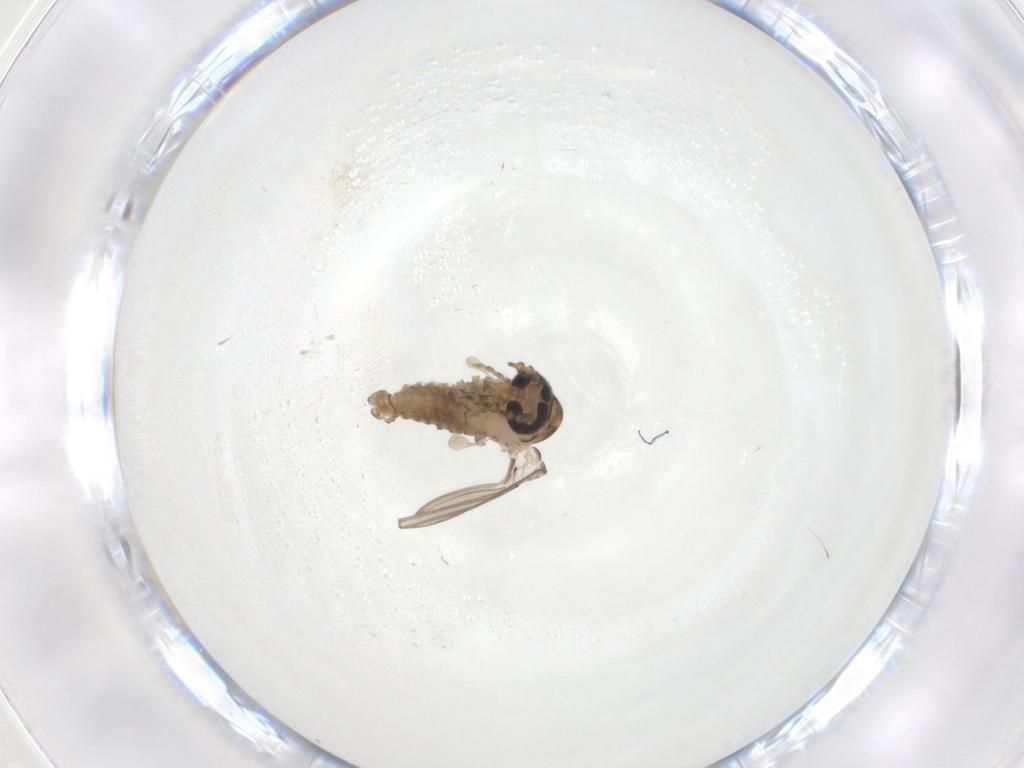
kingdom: Animalia
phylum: Arthropoda
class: Insecta
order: Diptera
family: Psychodidae
